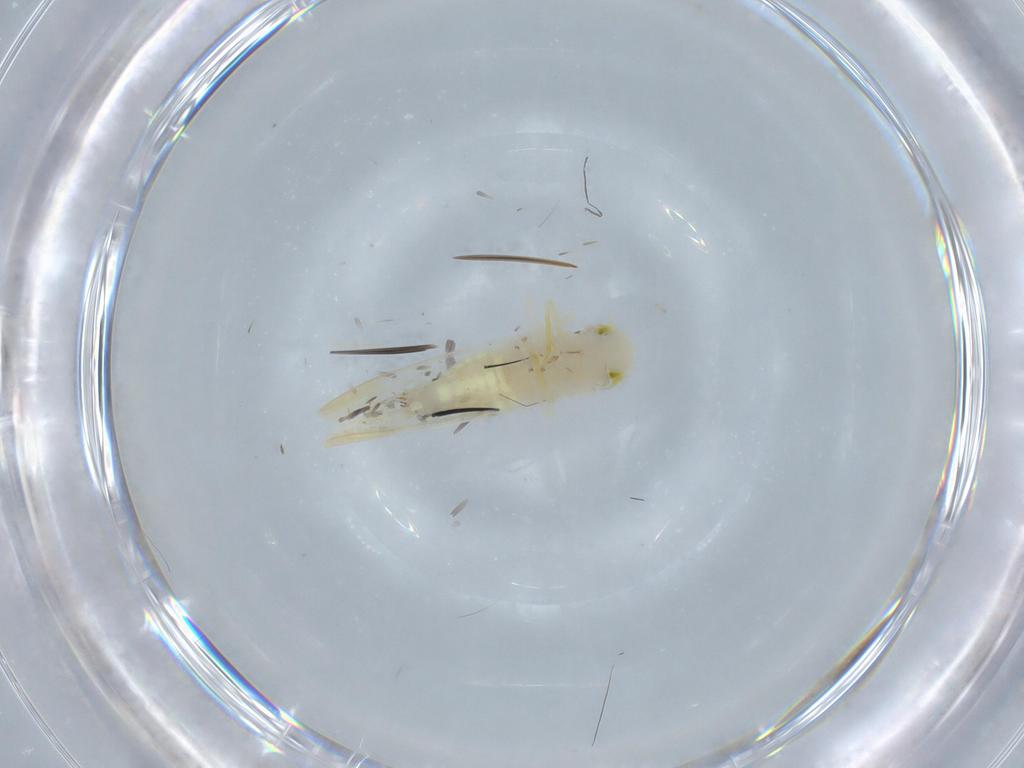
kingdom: Animalia
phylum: Arthropoda
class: Insecta
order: Hemiptera
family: Cicadellidae
